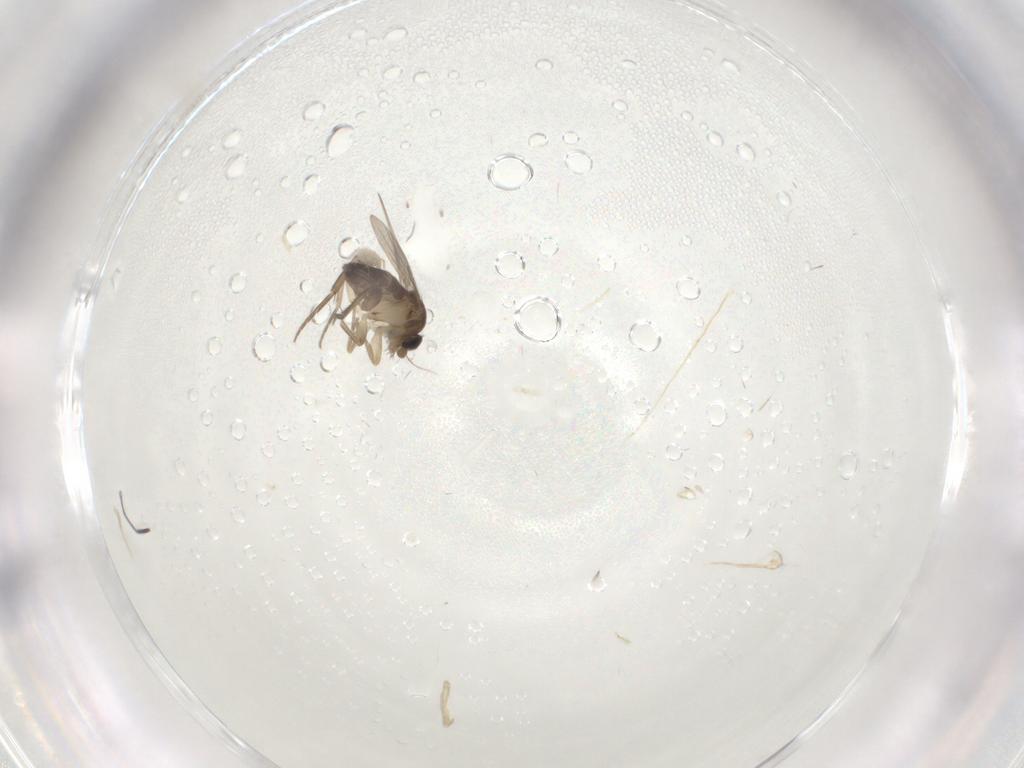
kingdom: Animalia
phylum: Arthropoda
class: Insecta
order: Diptera
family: Phoridae
